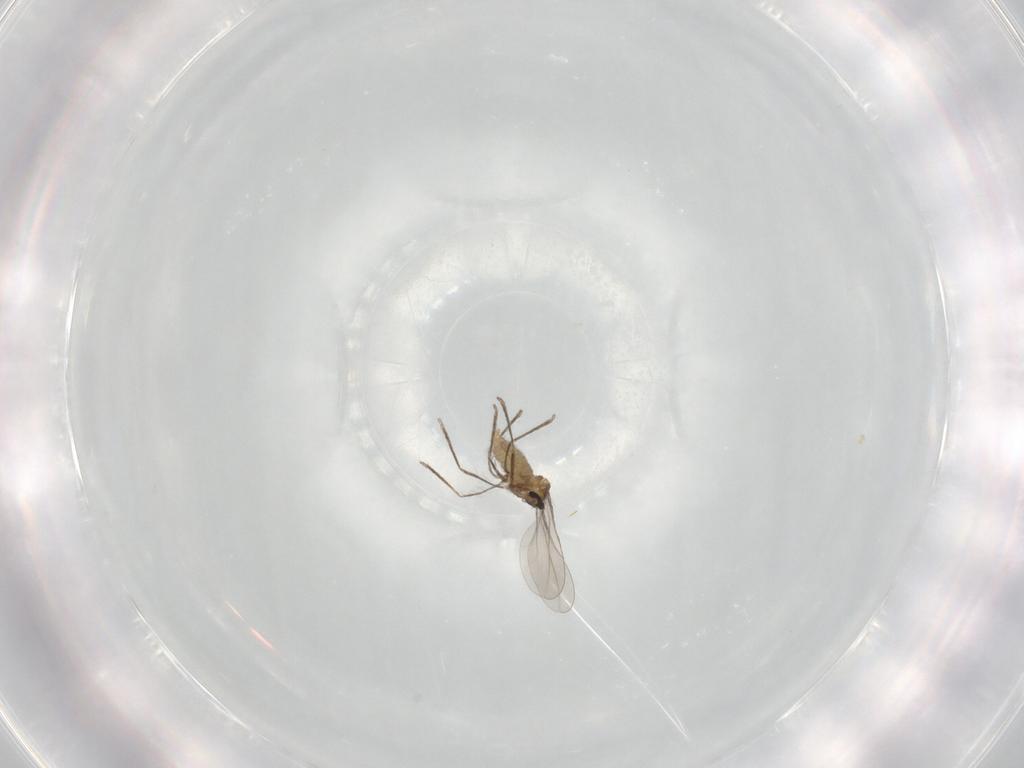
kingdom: Animalia
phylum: Arthropoda
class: Insecta
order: Diptera
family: Cecidomyiidae
